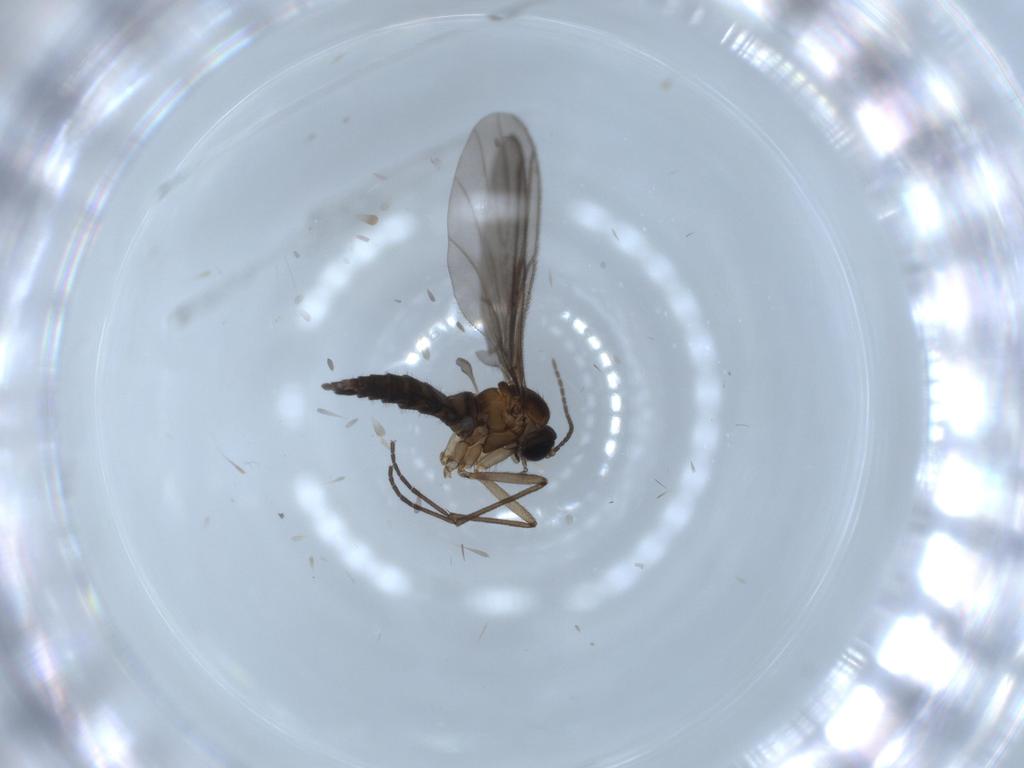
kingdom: Animalia
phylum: Arthropoda
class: Insecta
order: Diptera
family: Sciaridae
